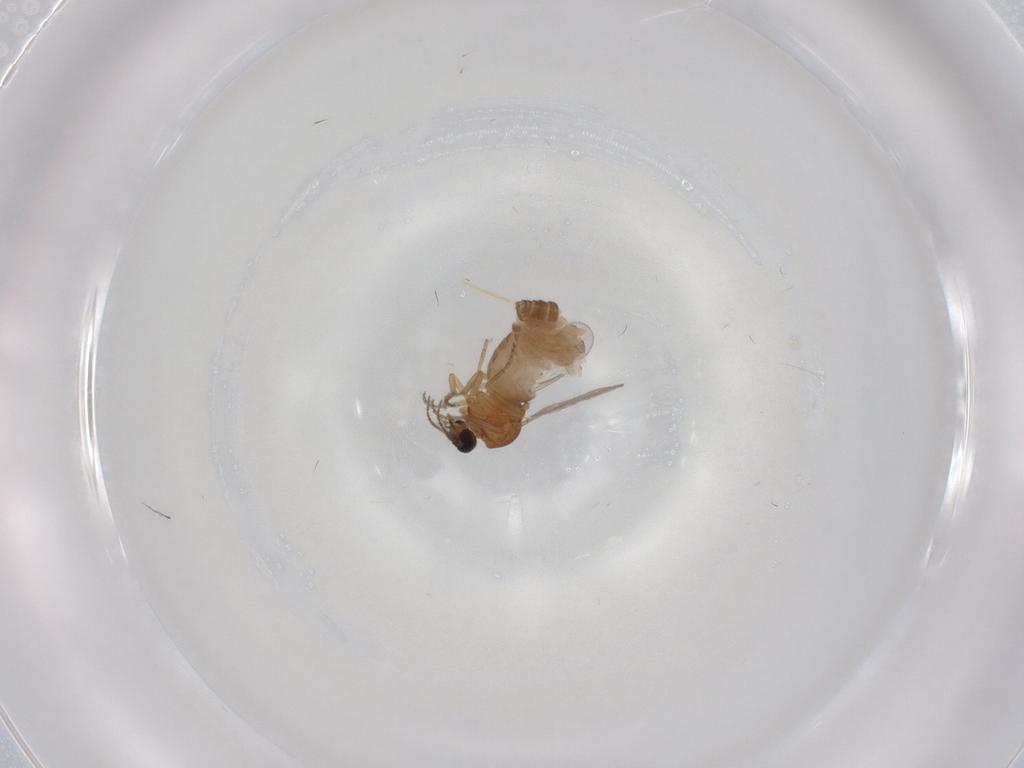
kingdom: Animalia
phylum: Arthropoda
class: Insecta
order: Diptera
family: Ceratopogonidae
